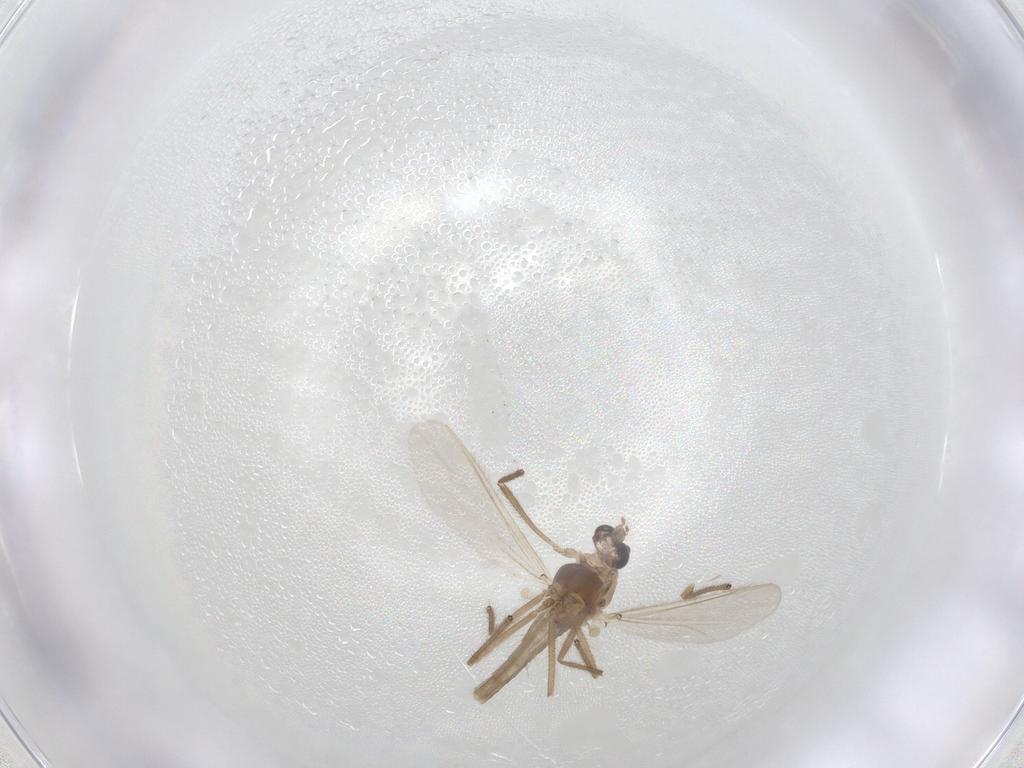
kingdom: Animalia
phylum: Arthropoda
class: Insecta
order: Diptera
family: Chironomidae
